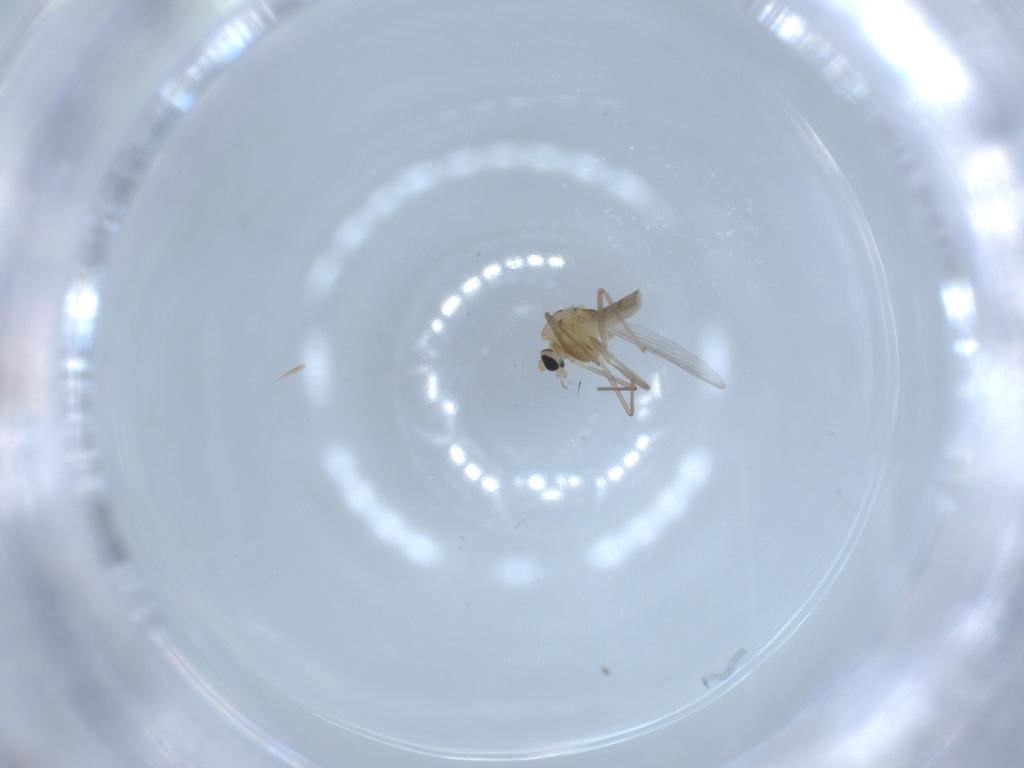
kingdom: Animalia
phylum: Arthropoda
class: Insecta
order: Diptera
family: Chironomidae
